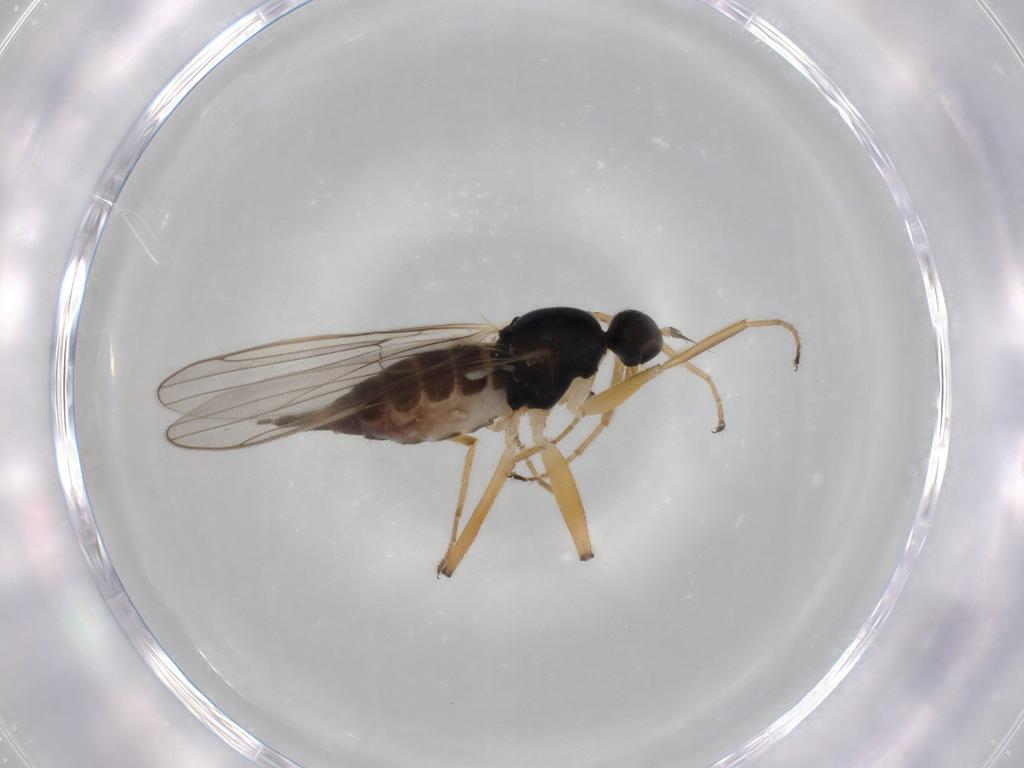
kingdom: Animalia
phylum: Arthropoda
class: Insecta
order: Diptera
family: Hybotidae
